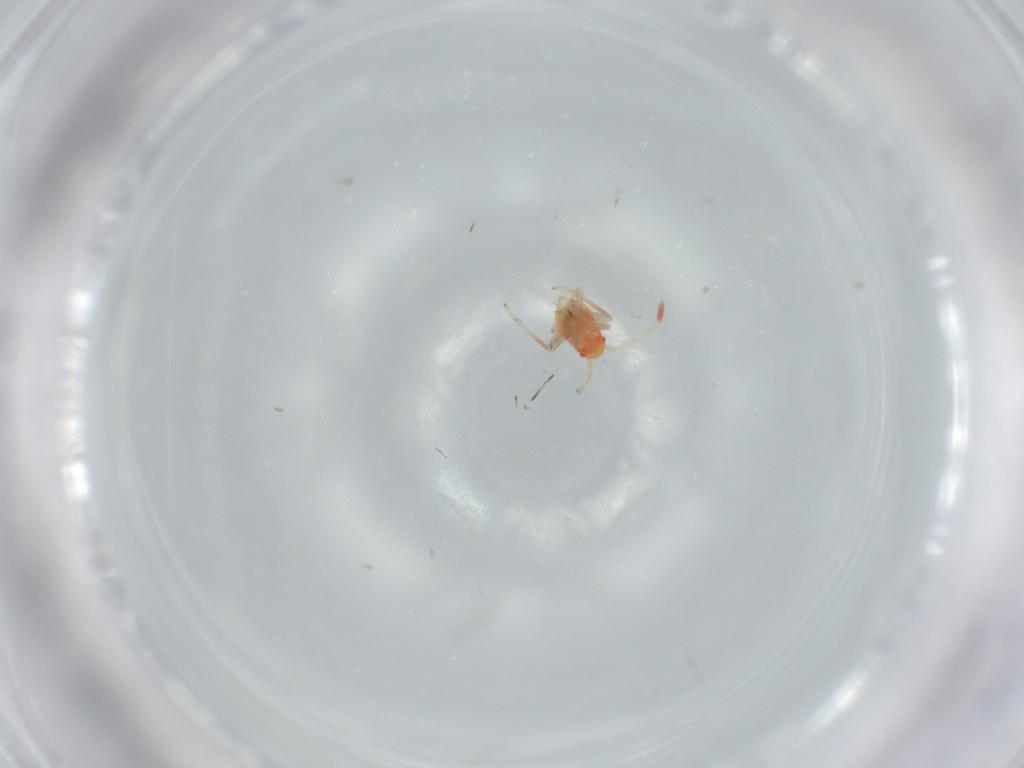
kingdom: Animalia
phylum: Arthropoda
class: Insecta
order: Hemiptera
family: Miridae
